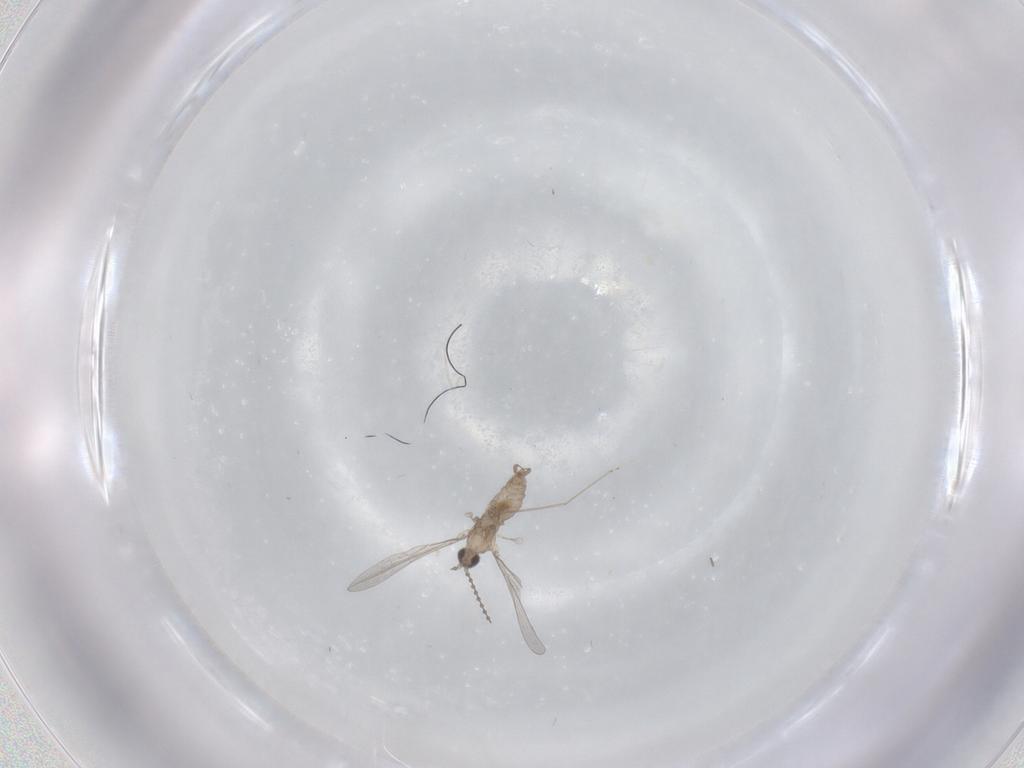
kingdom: Animalia
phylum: Arthropoda
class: Insecta
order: Diptera
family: Cecidomyiidae
